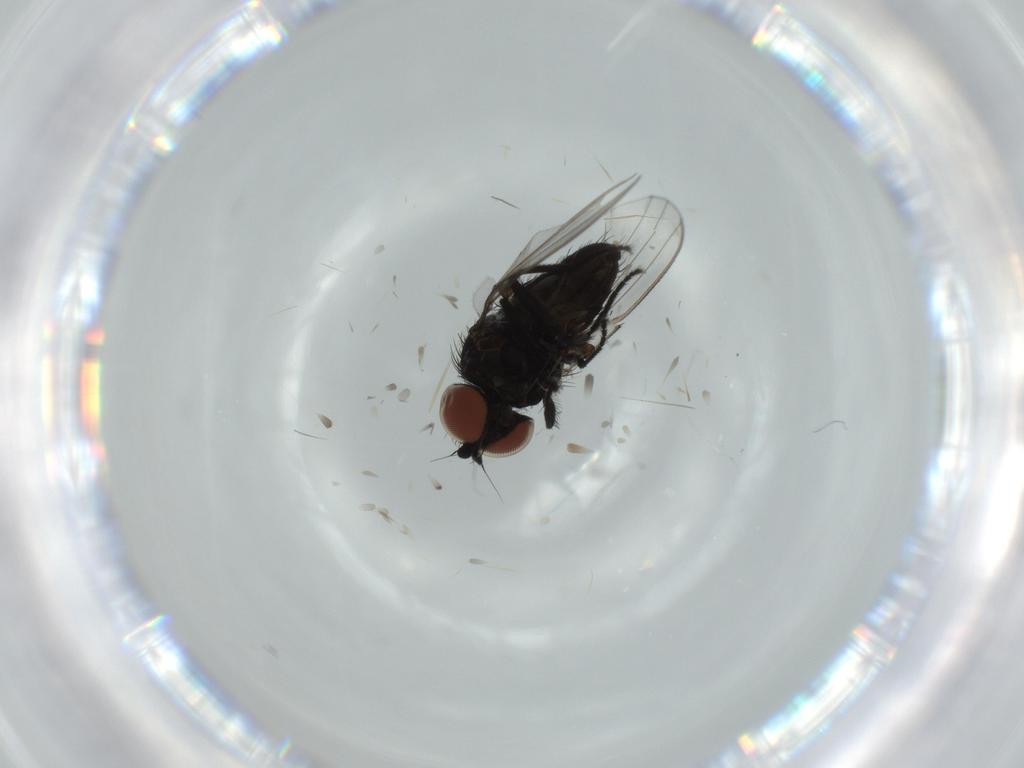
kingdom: Animalia
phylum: Arthropoda
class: Insecta
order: Diptera
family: Milichiidae
